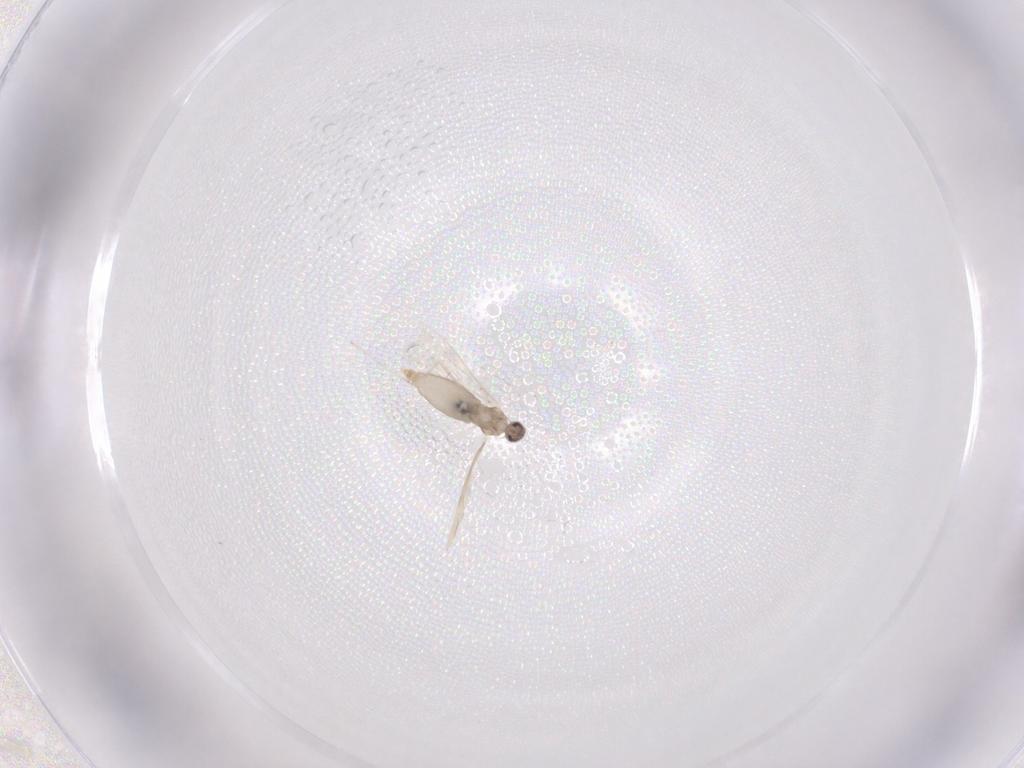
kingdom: Animalia
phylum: Arthropoda
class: Insecta
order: Diptera
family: Cecidomyiidae
